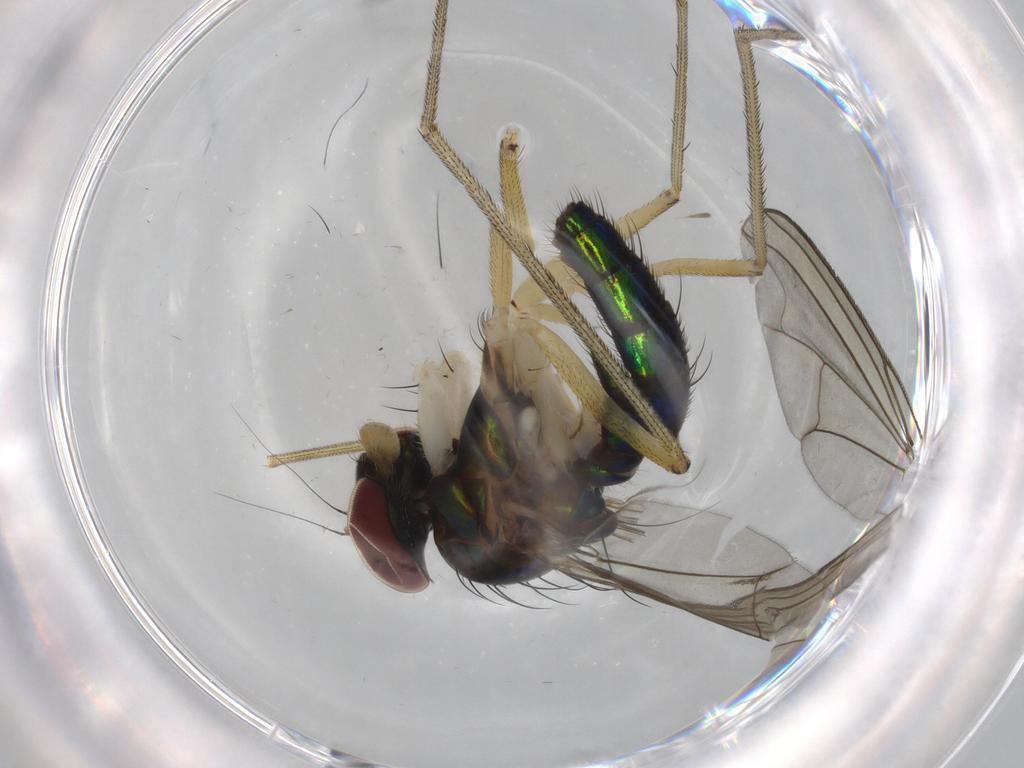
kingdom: Animalia
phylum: Arthropoda
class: Insecta
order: Diptera
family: Dolichopodidae
